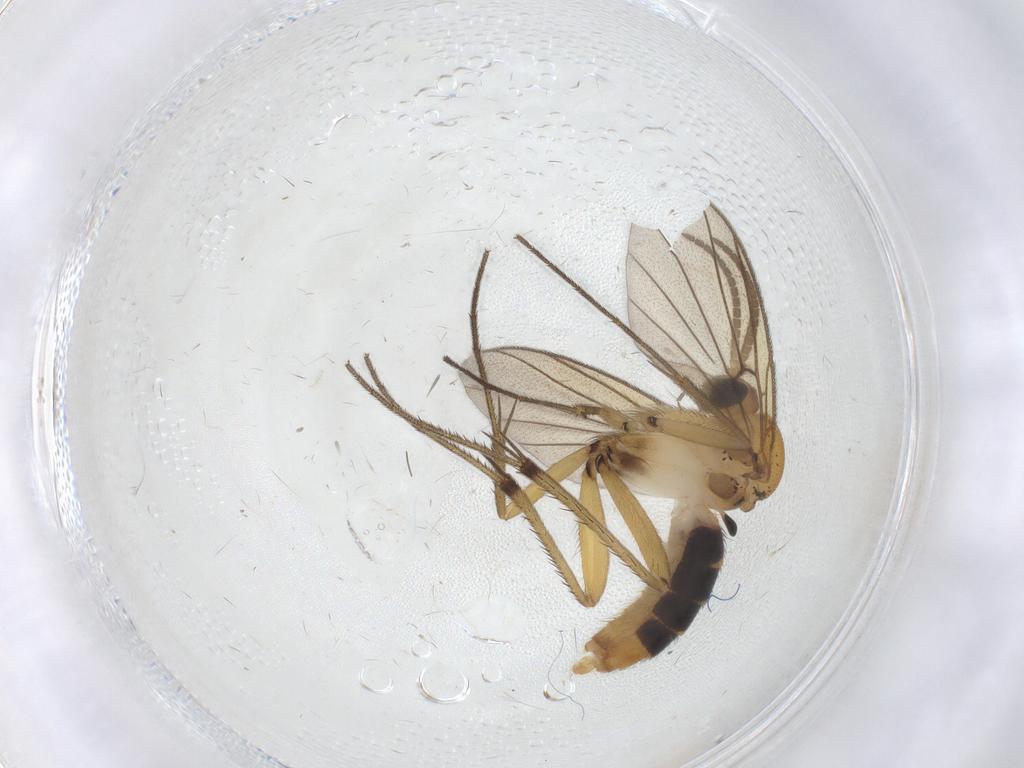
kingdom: Animalia
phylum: Arthropoda
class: Insecta
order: Diptera
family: Mycetophilidae
